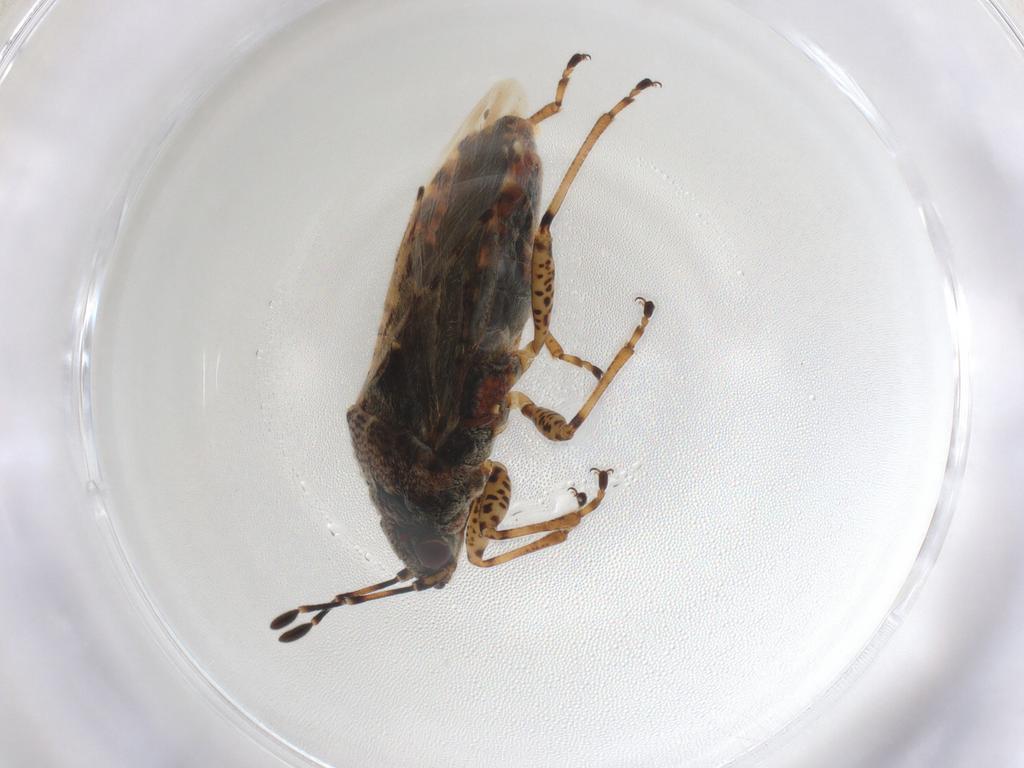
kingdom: Animalia
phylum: Arthropoda
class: Insecta
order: Hemiptera
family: Lygaeidae
